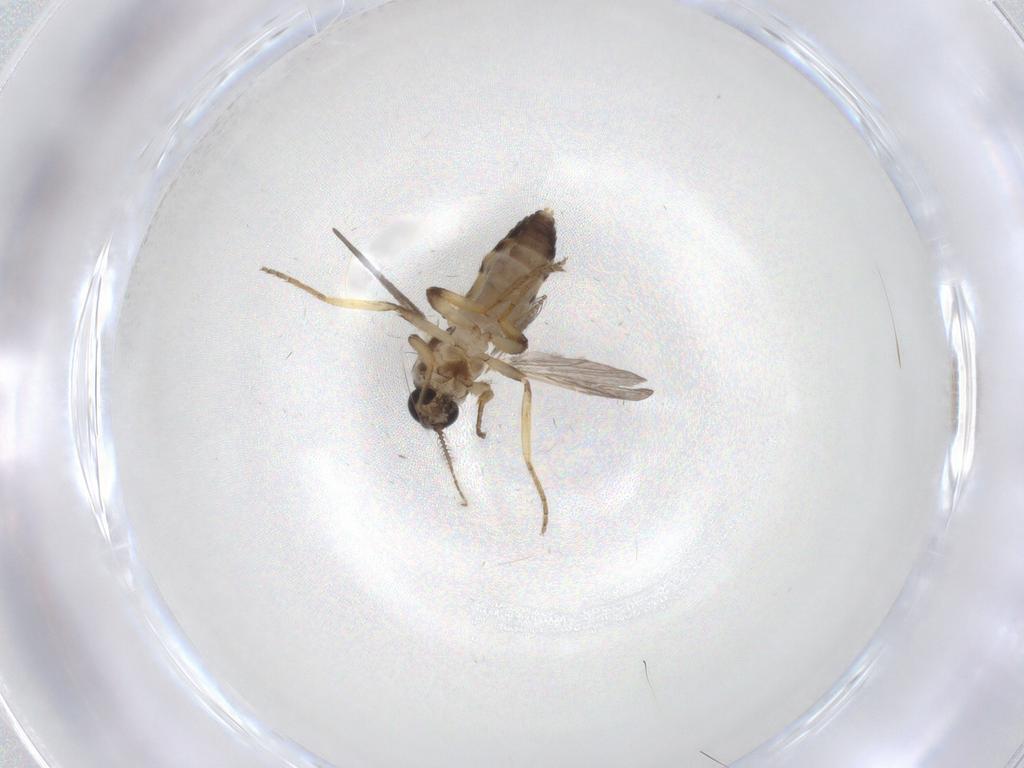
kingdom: Animalia
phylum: Arthropoda
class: Insecta
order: Diptera
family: Ceratopogonidae
